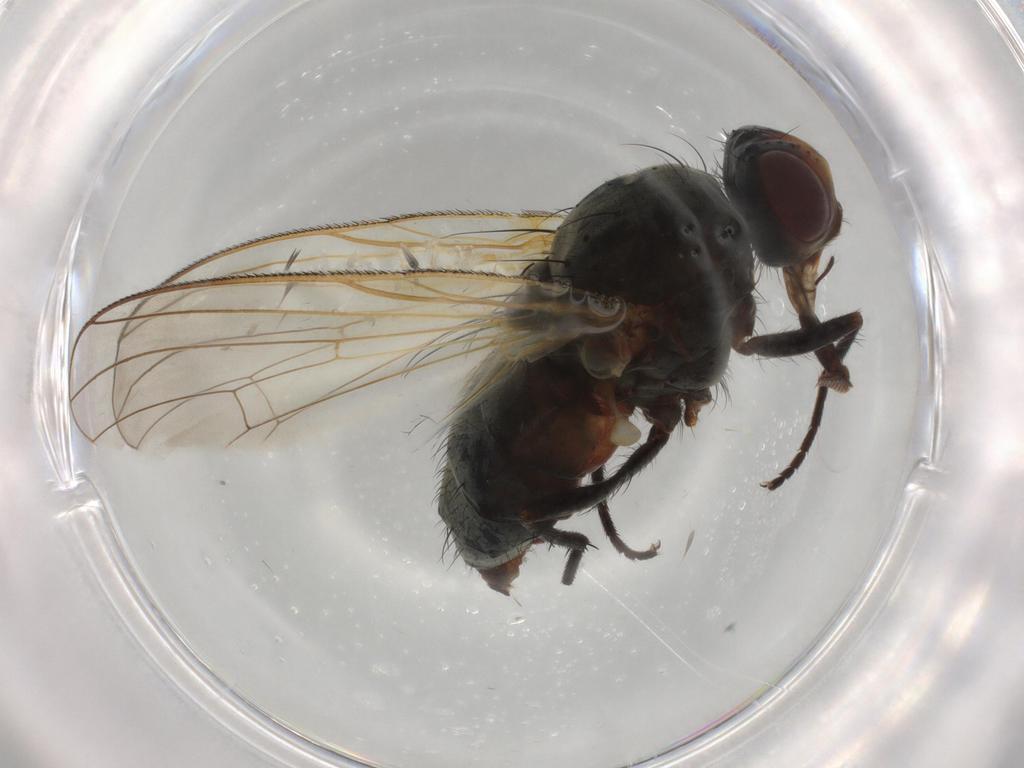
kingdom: Animalia
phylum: Arthropoda
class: Insecta
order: Diptera
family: Anthomyiidae
